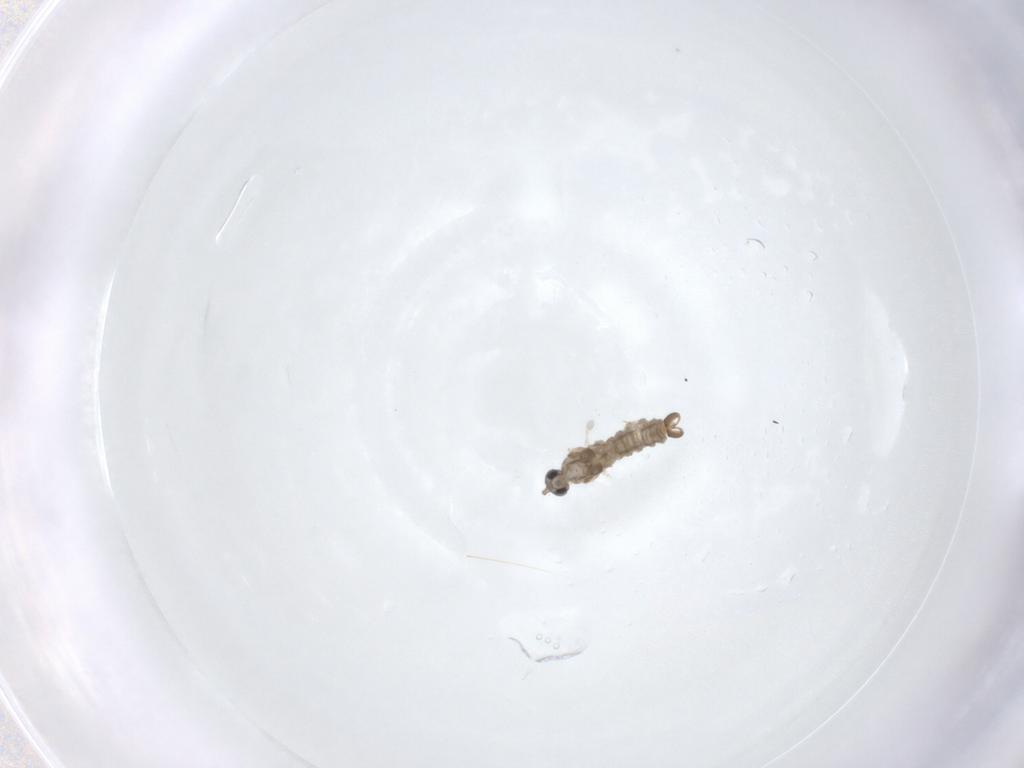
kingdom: Animalia
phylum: Arthropoda
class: Insecta
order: Diptera
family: Cecidomyiidae
